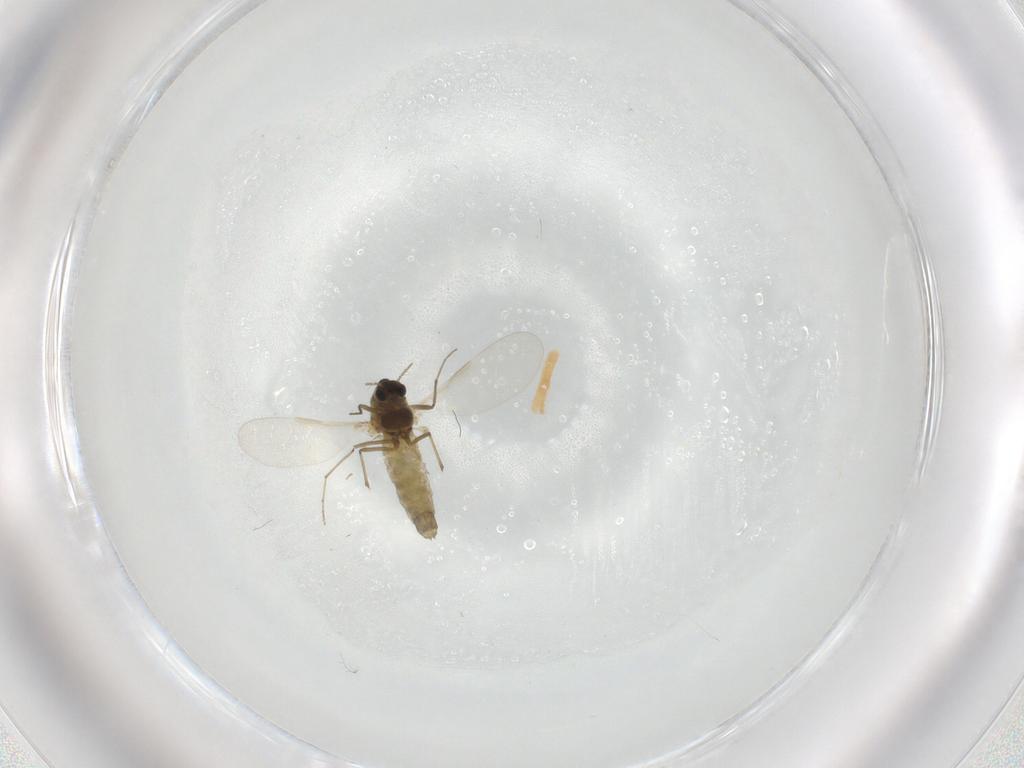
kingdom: Animalia
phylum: Arthropoda
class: Insecta
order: Diptera
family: Chironomidae
